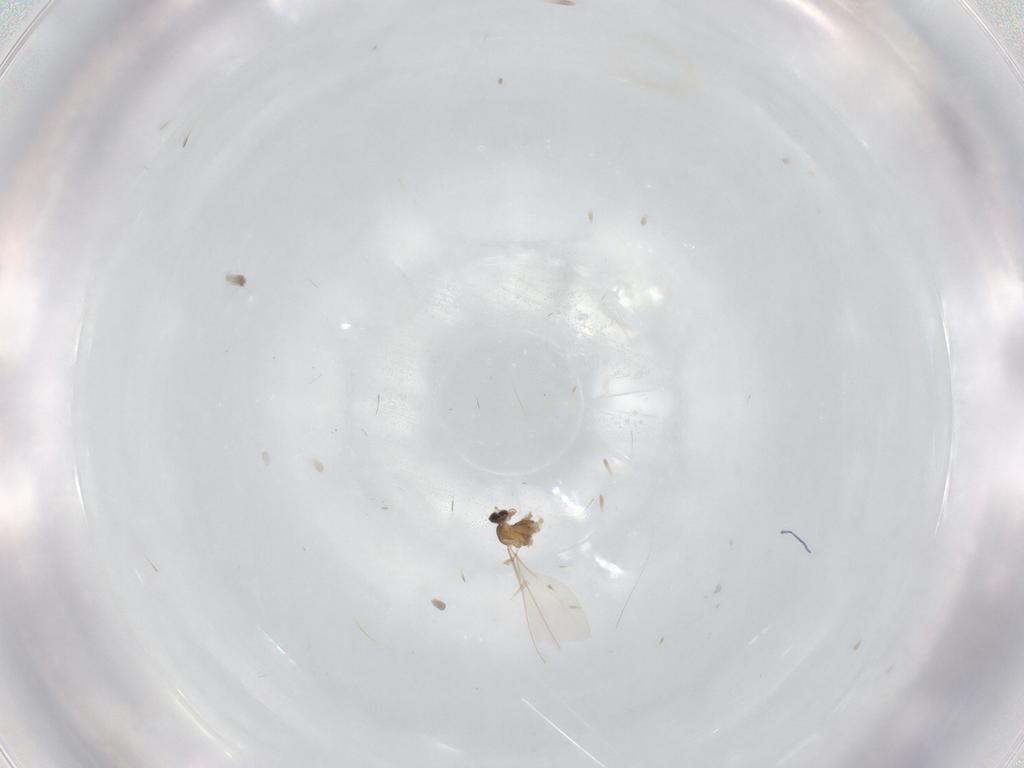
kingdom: Animalia
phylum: Arthropoda
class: Insecta
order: Diptera
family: Cecidomyiidae
